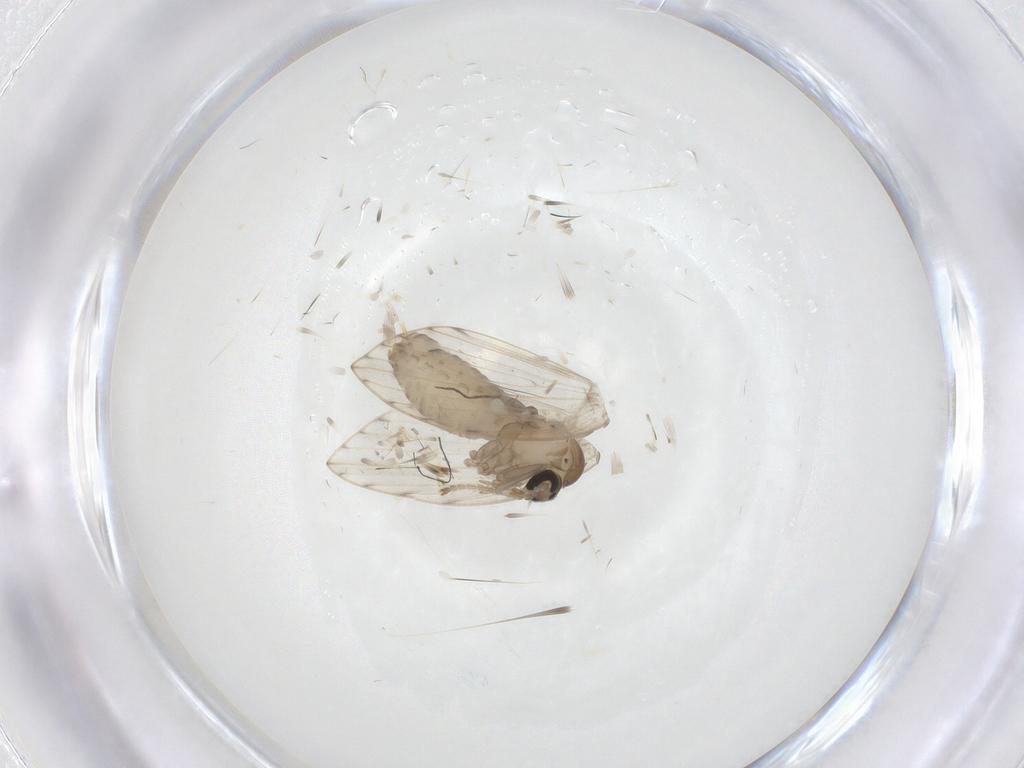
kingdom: Animalia
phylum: Arthropoda
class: Insecta
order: Diptera
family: Psychodidae
